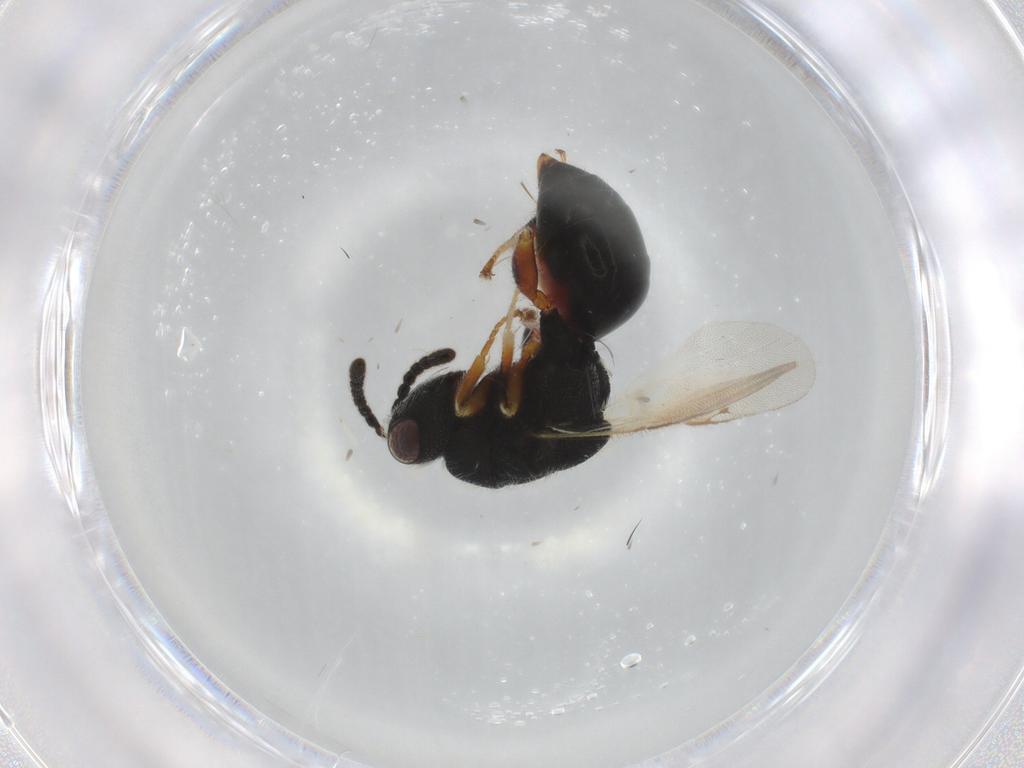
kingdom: Animalia
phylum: Arthropoda
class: Insecta
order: Hymenoptera
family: Eurytomidae
